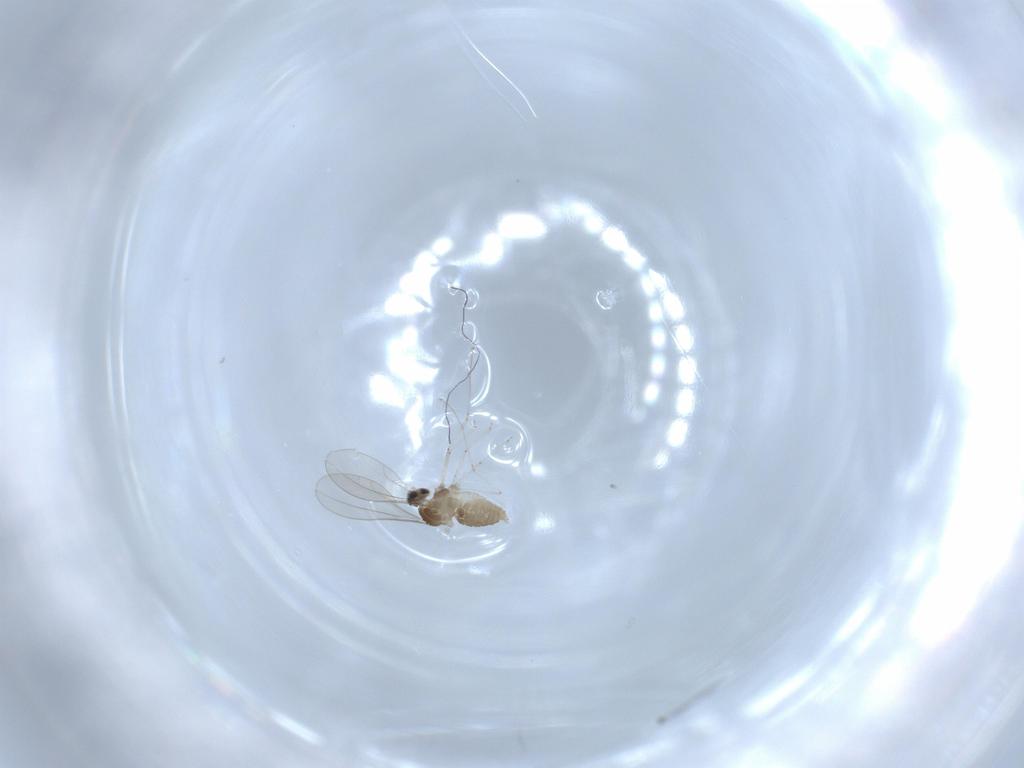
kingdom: Animalia
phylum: Arthropoda
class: Insecta
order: Diptera
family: Cecidomyiidae
